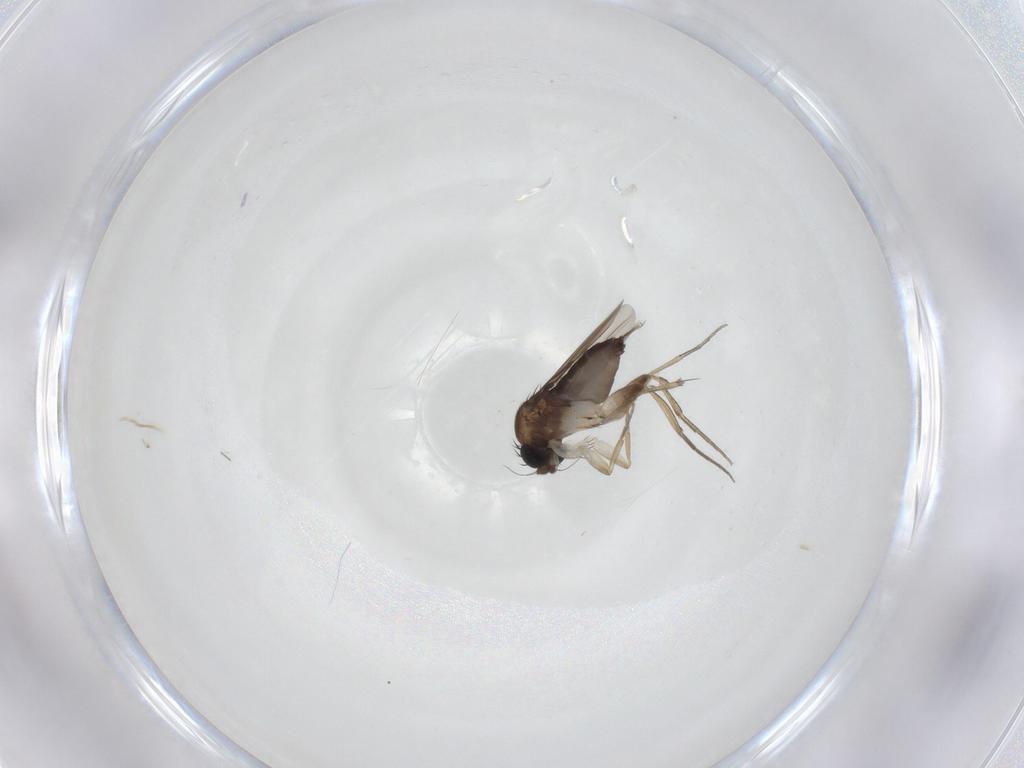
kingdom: Animalia
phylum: Arthropoda
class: Insecta
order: Diptera
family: Phoridae
